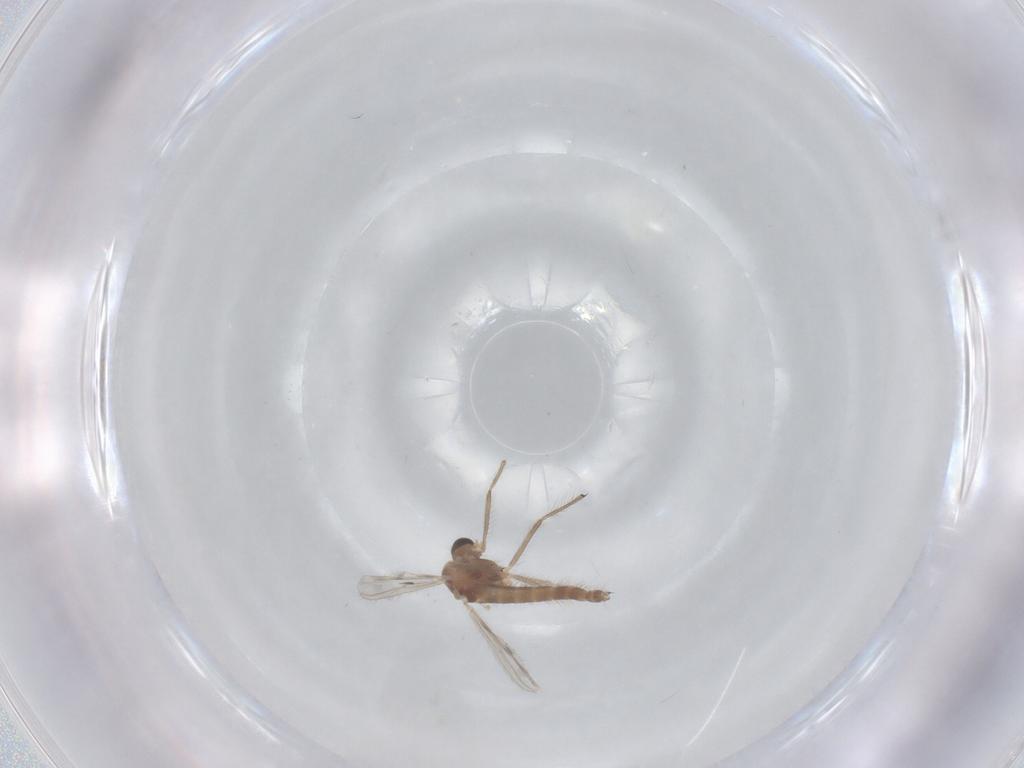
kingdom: Animalia
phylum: Arthropoda
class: Insecta
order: Diptera
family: Chironomidae
